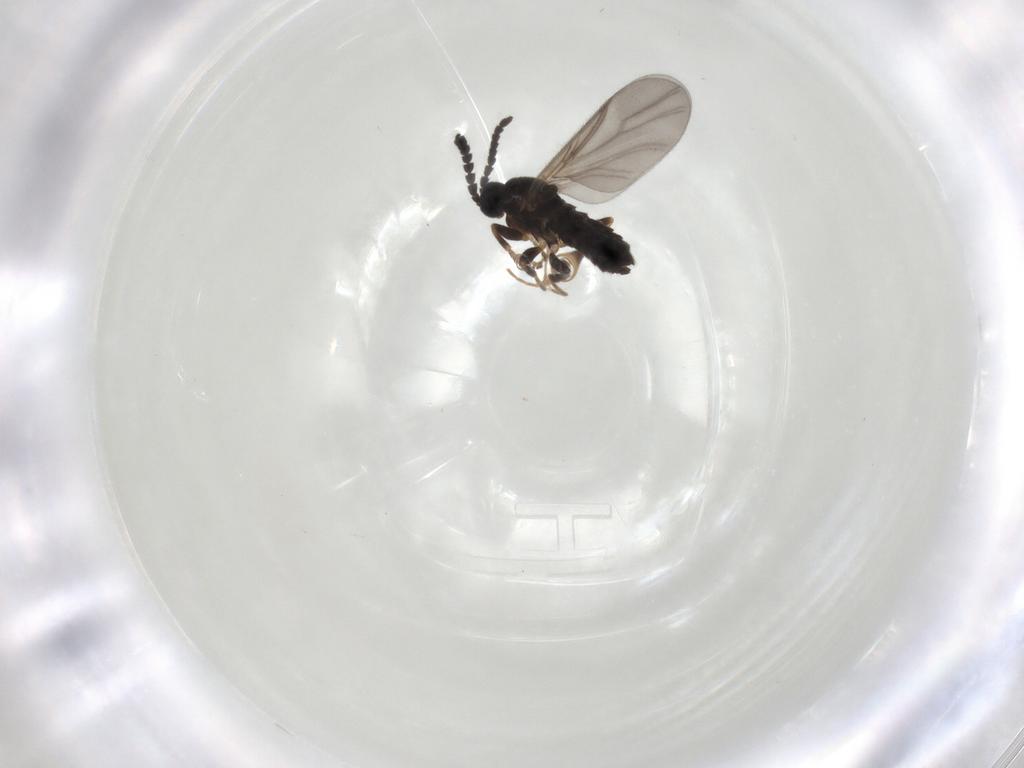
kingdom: Animalia
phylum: Arthropoda
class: Insecta
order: Diptera
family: Scatopsidae
